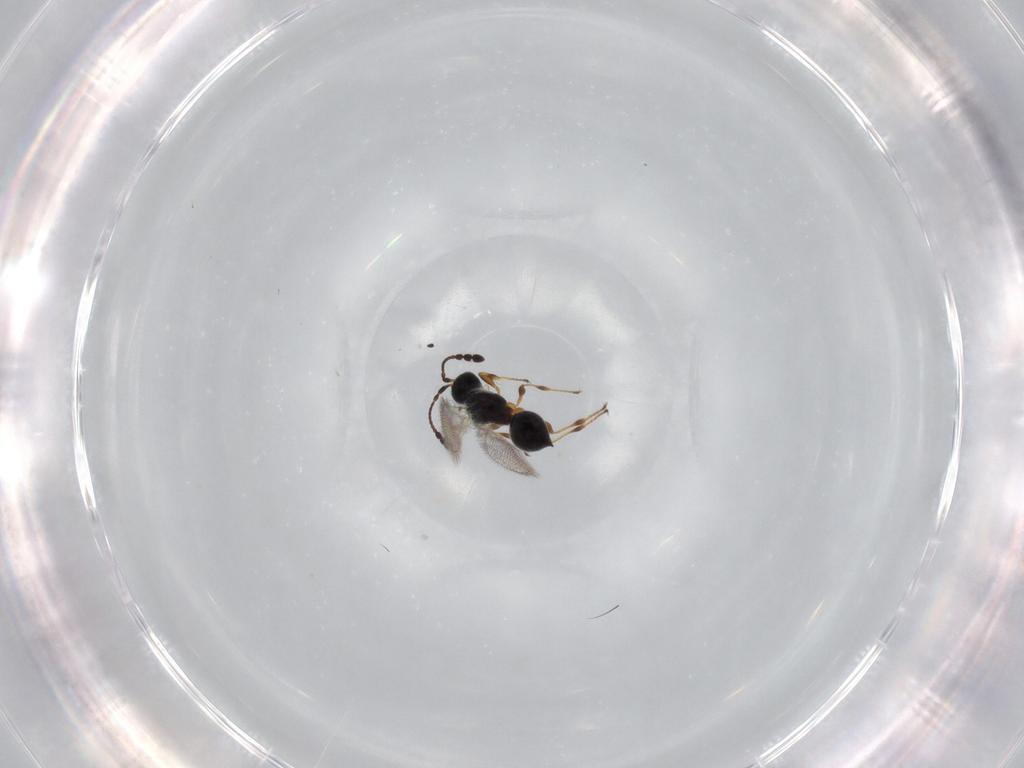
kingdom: Animalia
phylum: Arthropoda
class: Insecta
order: Hymenoptera
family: Diapriidae
